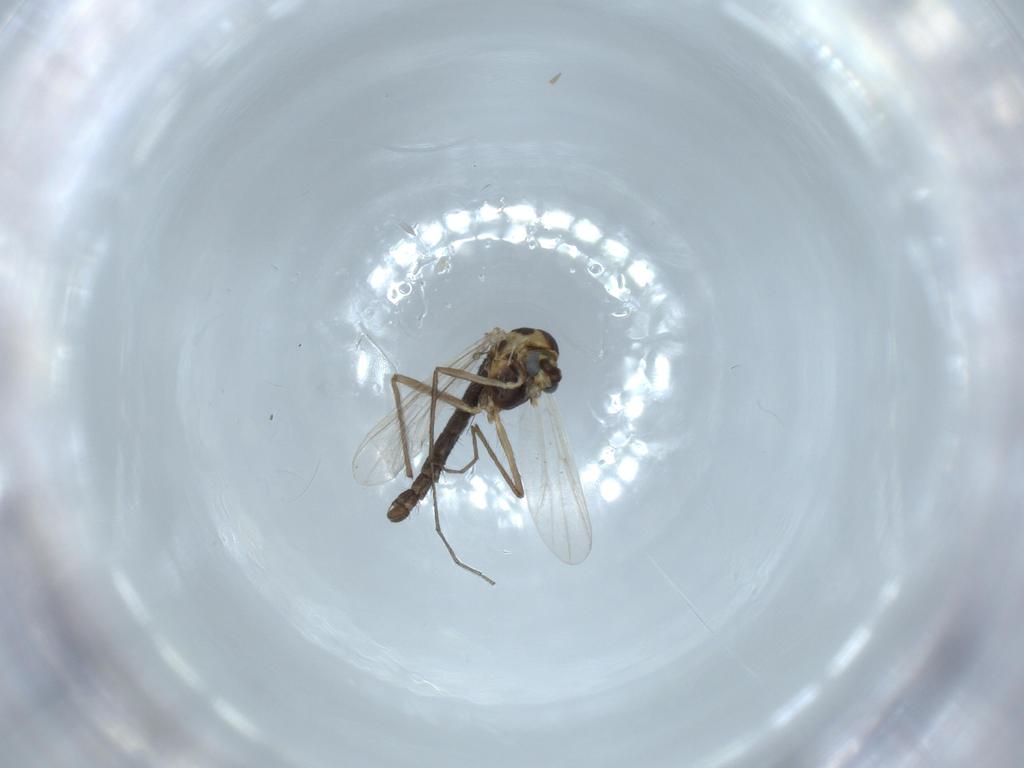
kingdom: Animalia
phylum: Arthropoda
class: Insecta
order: Diptera
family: Chironomidae
